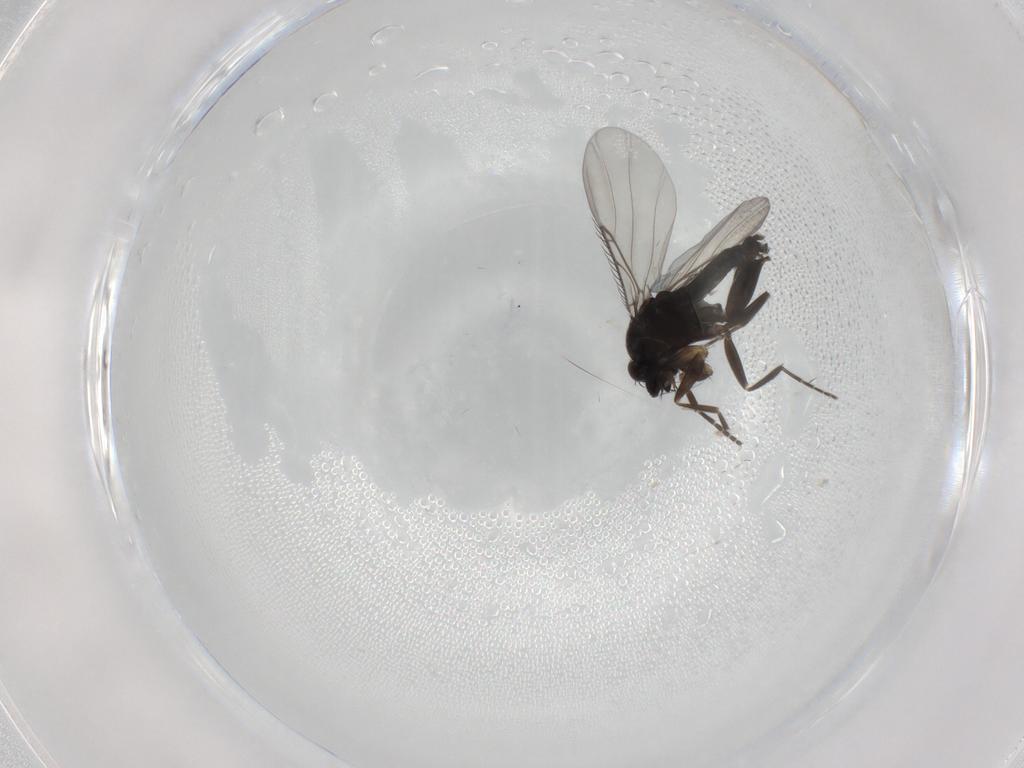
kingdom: Animalia
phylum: Arthropoda
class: Insecta
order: Diptera
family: Phoridae
